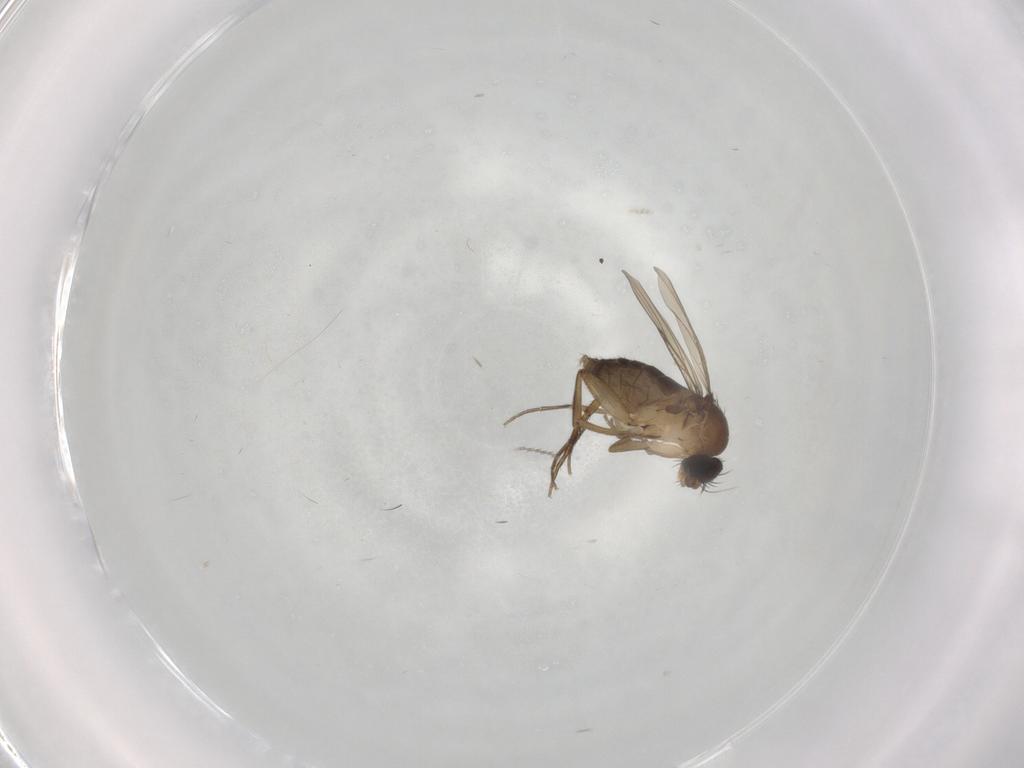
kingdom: Animalia
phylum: Arthropoda
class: Insecta
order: Diptera
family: Phoridae
